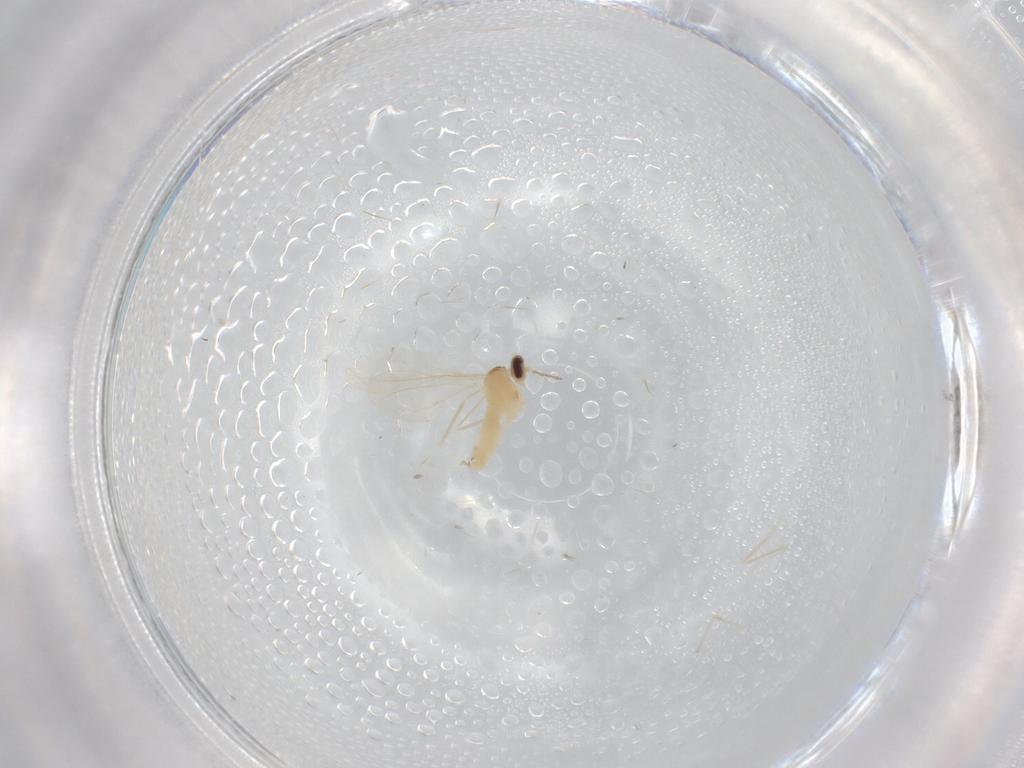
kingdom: Animalia
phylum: Arthropoda
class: Insecta
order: Diptera
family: Cecidomyiidae
